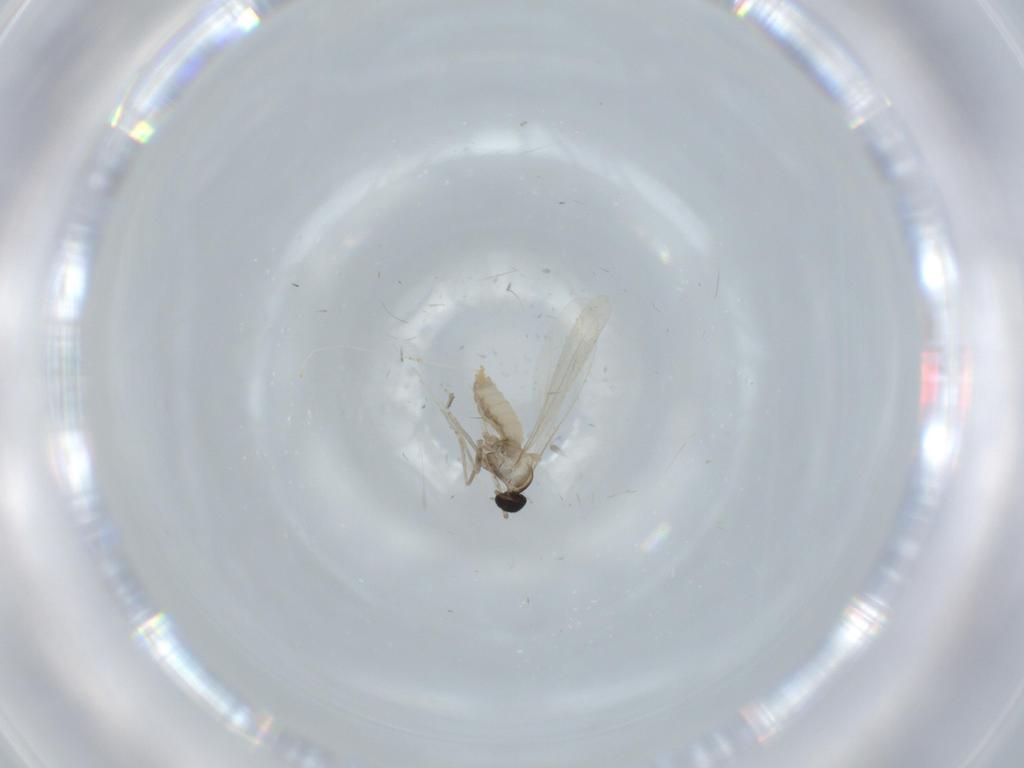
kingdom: Animalia
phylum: Arthropoda
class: Insecta
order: Diptera
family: Cecidomyiidae
